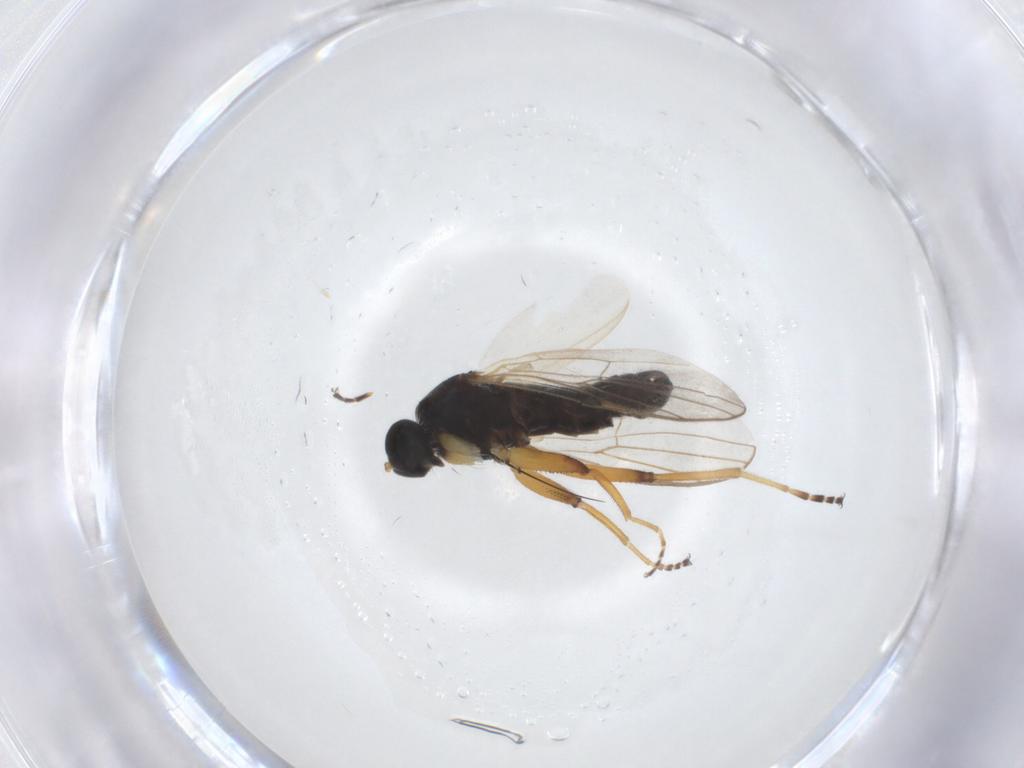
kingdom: Animalia
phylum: Arthropoda
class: Insecta
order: Diptera
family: Hybotidae
